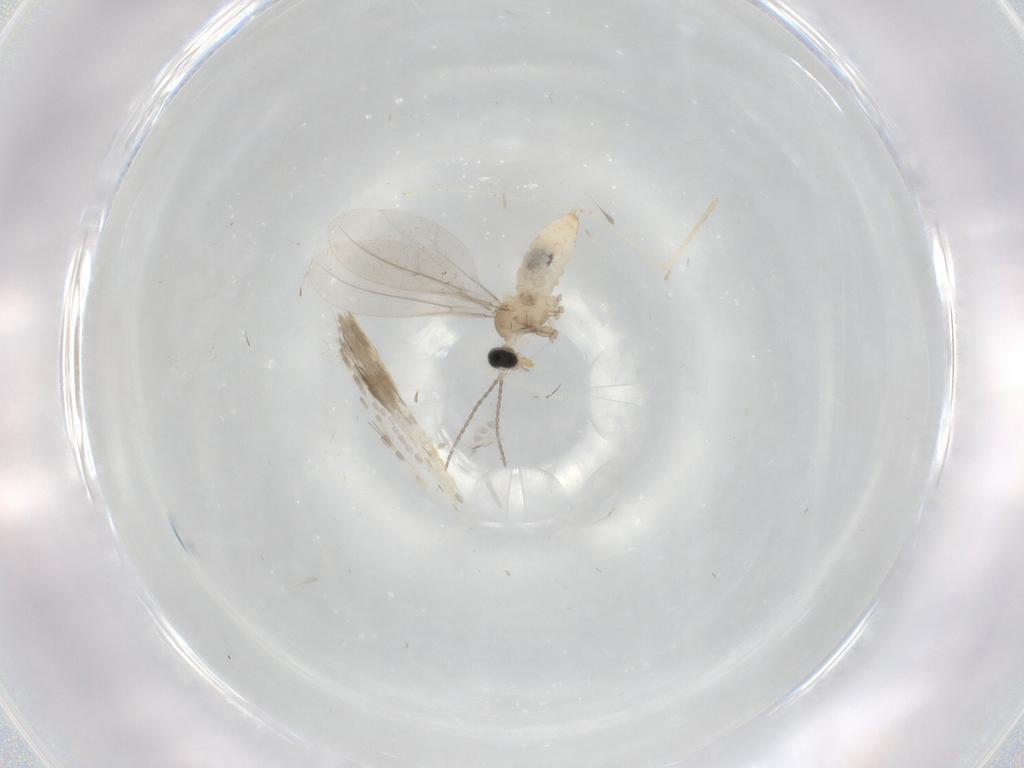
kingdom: Animalia
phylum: Arthropoda
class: Insecta
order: Diptera
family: Cecidomyiidae
